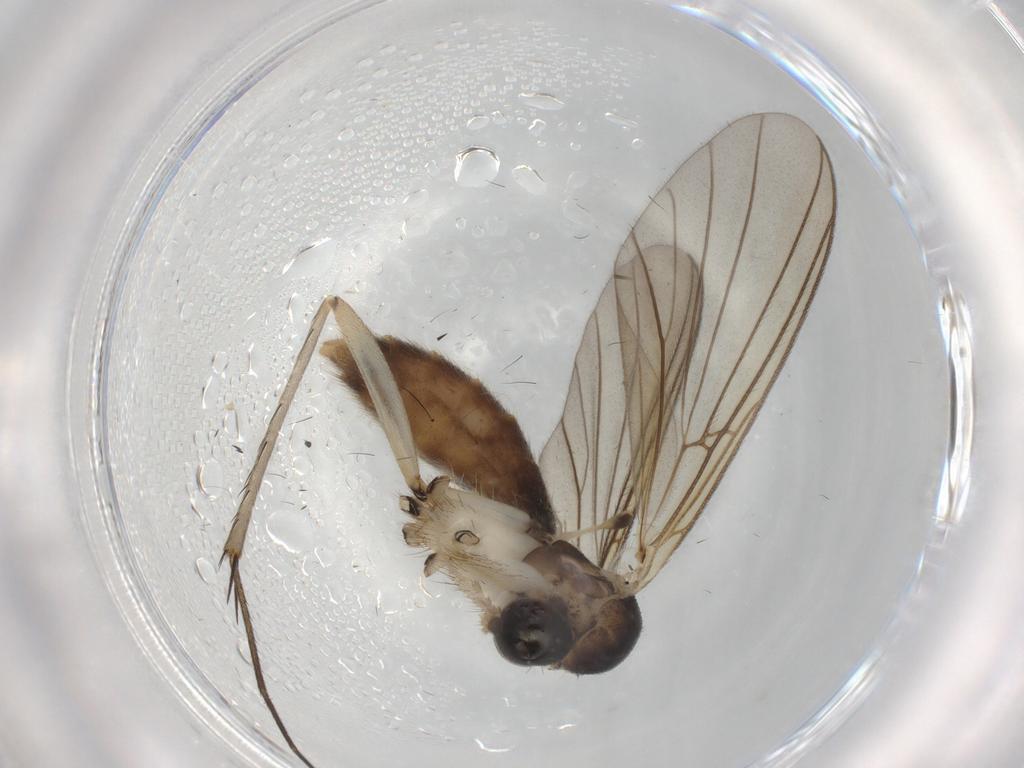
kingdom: Animalia
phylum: Arthropoda
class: Insecta
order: Diptera
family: Mycetophilidae
